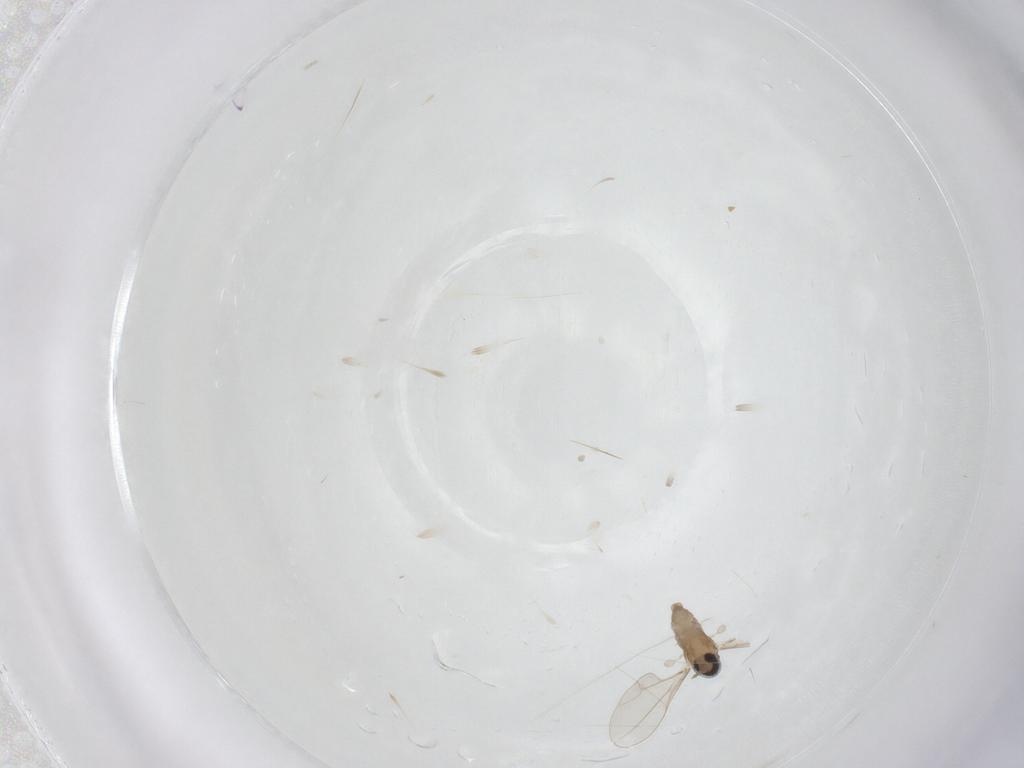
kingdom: Animalia
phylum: Arthropoda
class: Insecta
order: Diptera
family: Cecidomyiidae
